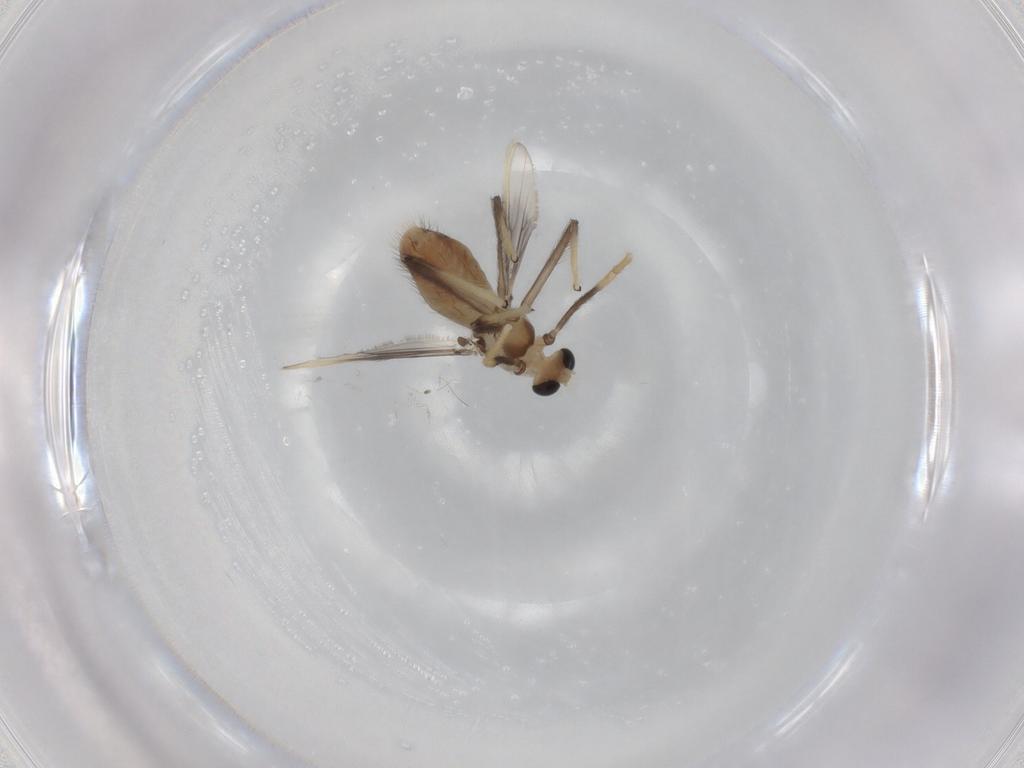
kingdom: Animalia
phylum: Arthropoda
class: Insecta
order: Diptera
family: Chironomidae
